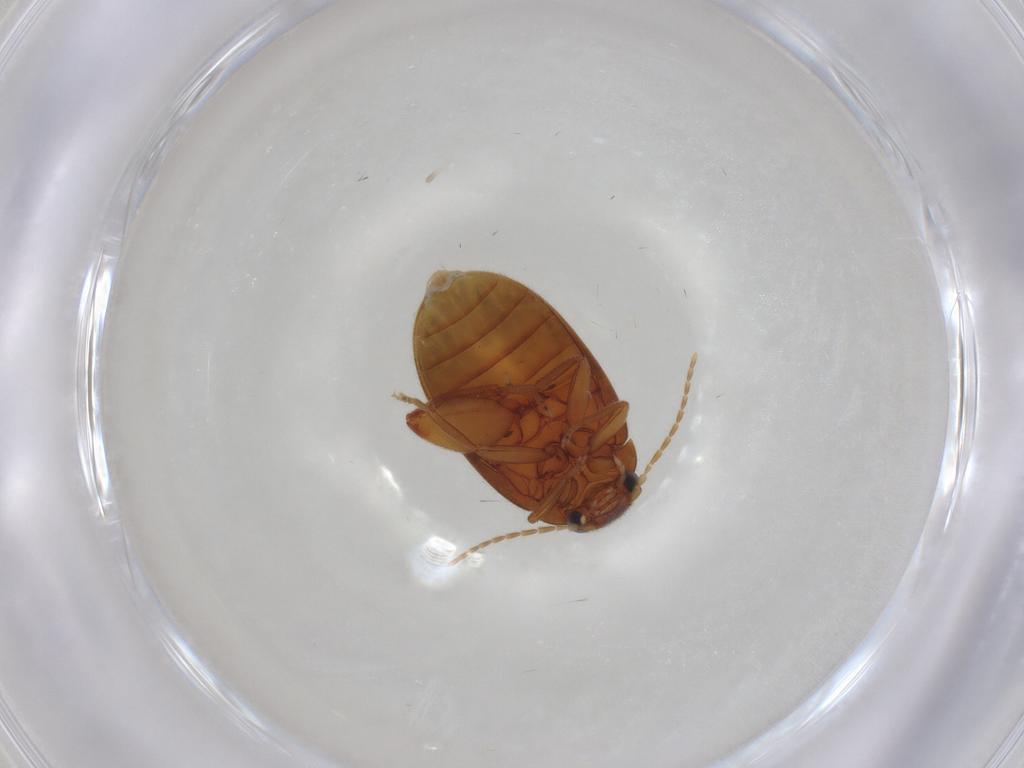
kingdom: Animalia
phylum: Arthropoda
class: Insecta
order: Coleoptera
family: Scirtidae
